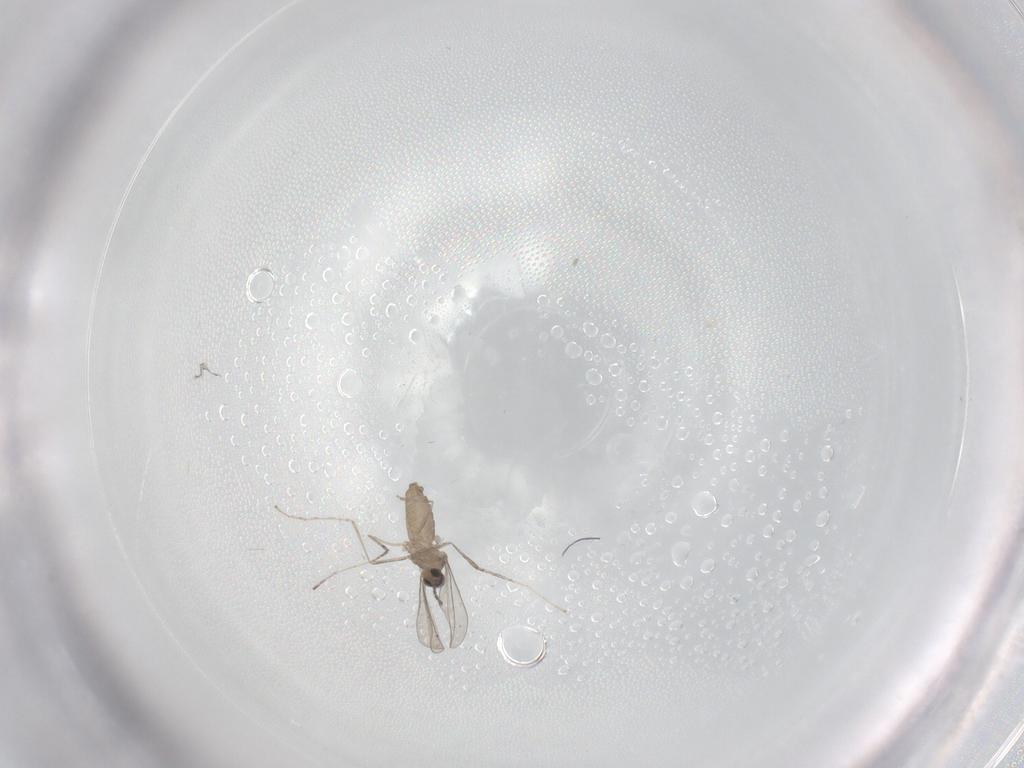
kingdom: Animalia
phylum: Arthropoda
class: Insecta
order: Diptera
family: Cecidomyiidae
